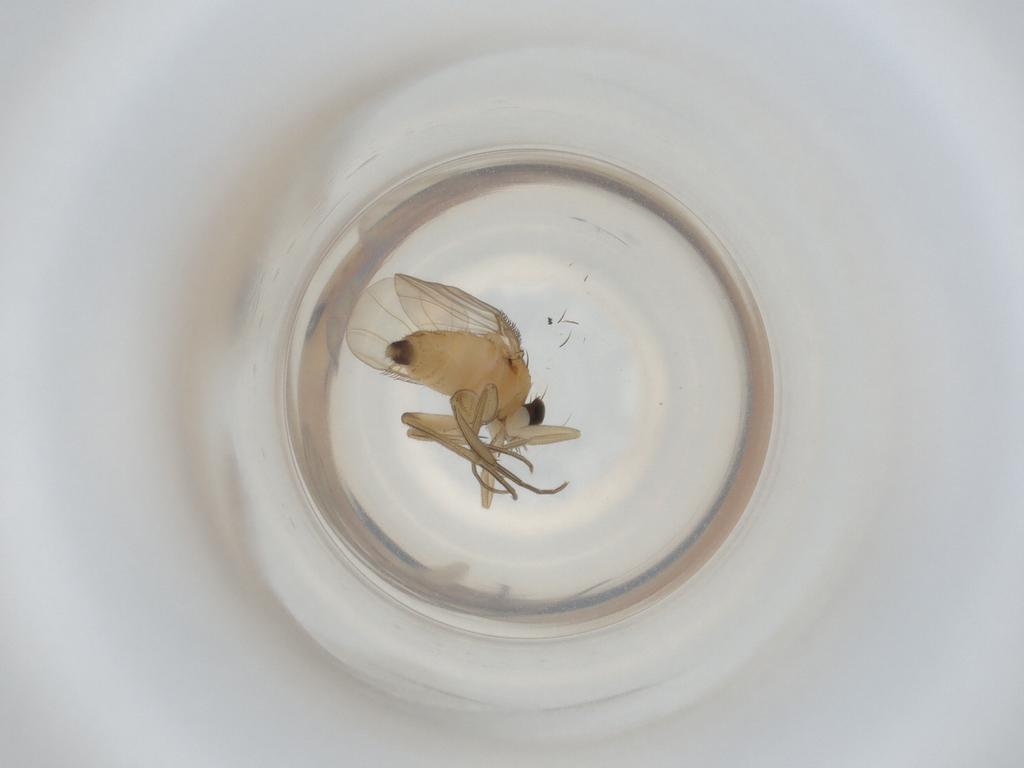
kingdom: Animalia
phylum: Arthropoda
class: Insecta
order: Diptera
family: Phoridae
